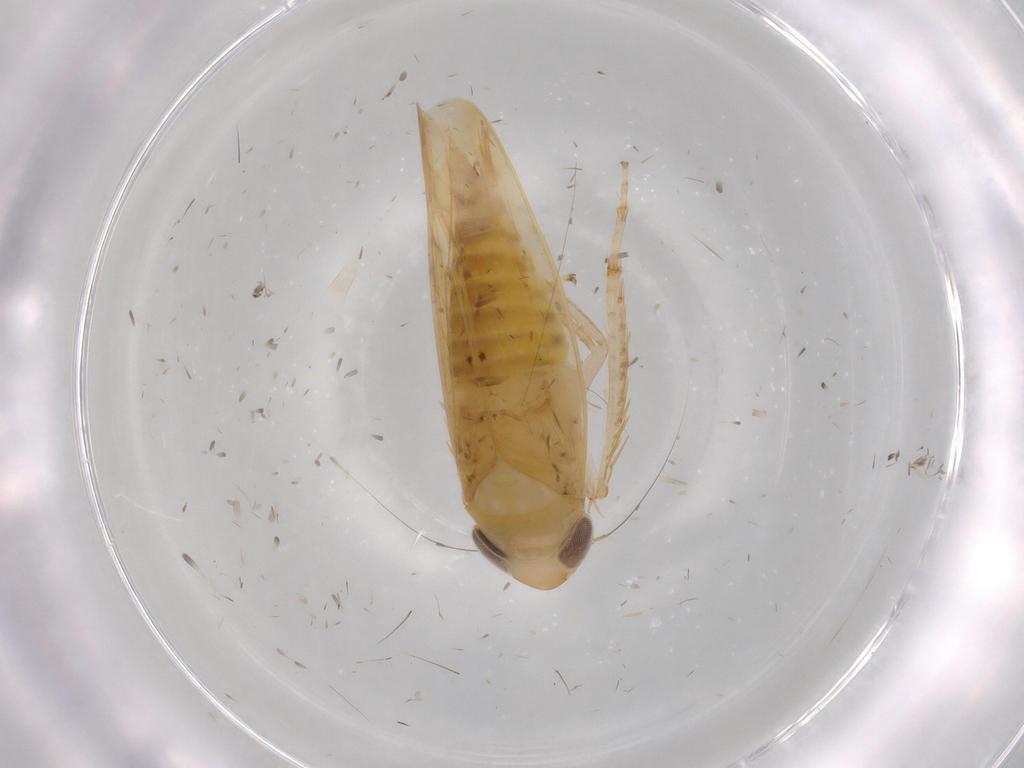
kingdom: Animalia
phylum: Arthropoda
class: Insecta
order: Hemiptera
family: Cicadellidae
